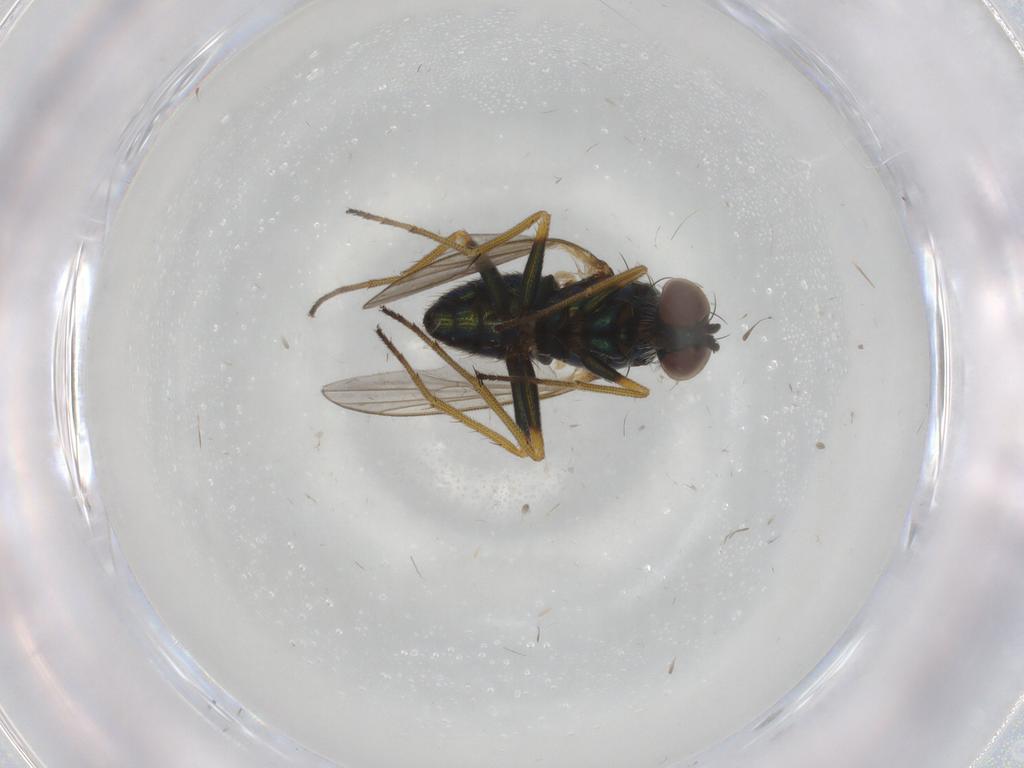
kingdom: Animalia
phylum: Arthropoda
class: Insecta
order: Diptera
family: Dolichopodidae
